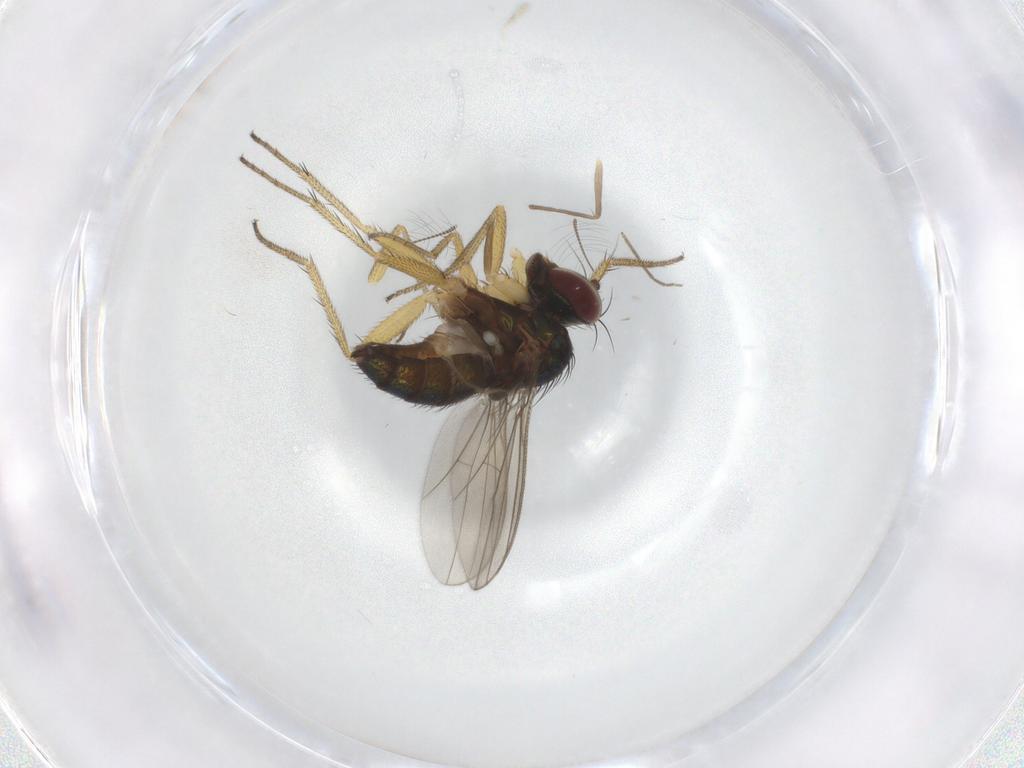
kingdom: Animalia
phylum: Arthropoda
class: Insecta
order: Diptera
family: Dolichopodidae
